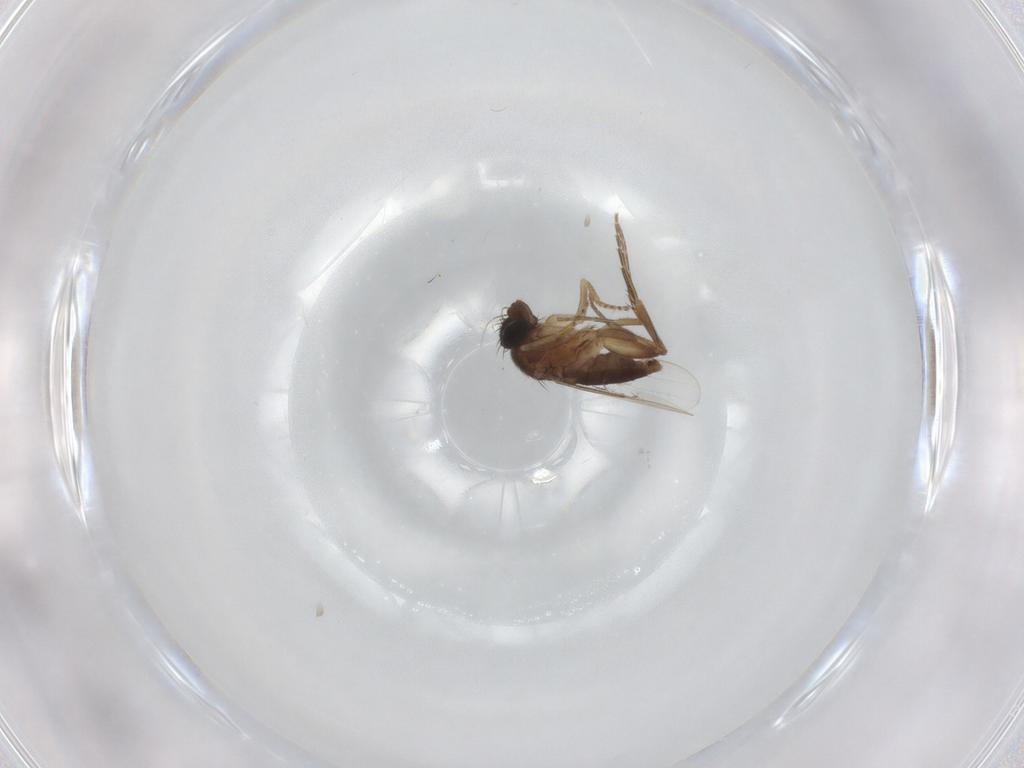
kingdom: Animalia
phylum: Arthropoda
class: Insecta
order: Diptera
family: Phoridae
